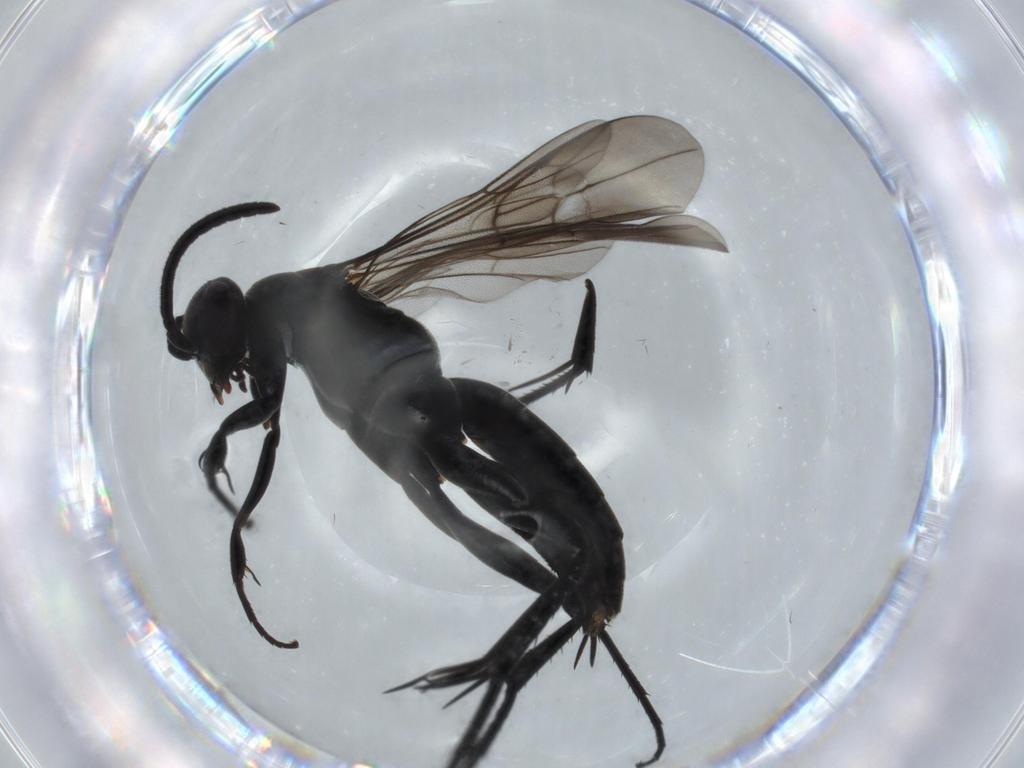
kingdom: Animalia
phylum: Arthropoda
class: Insecta
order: Hymenoptera
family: Pompilidae
